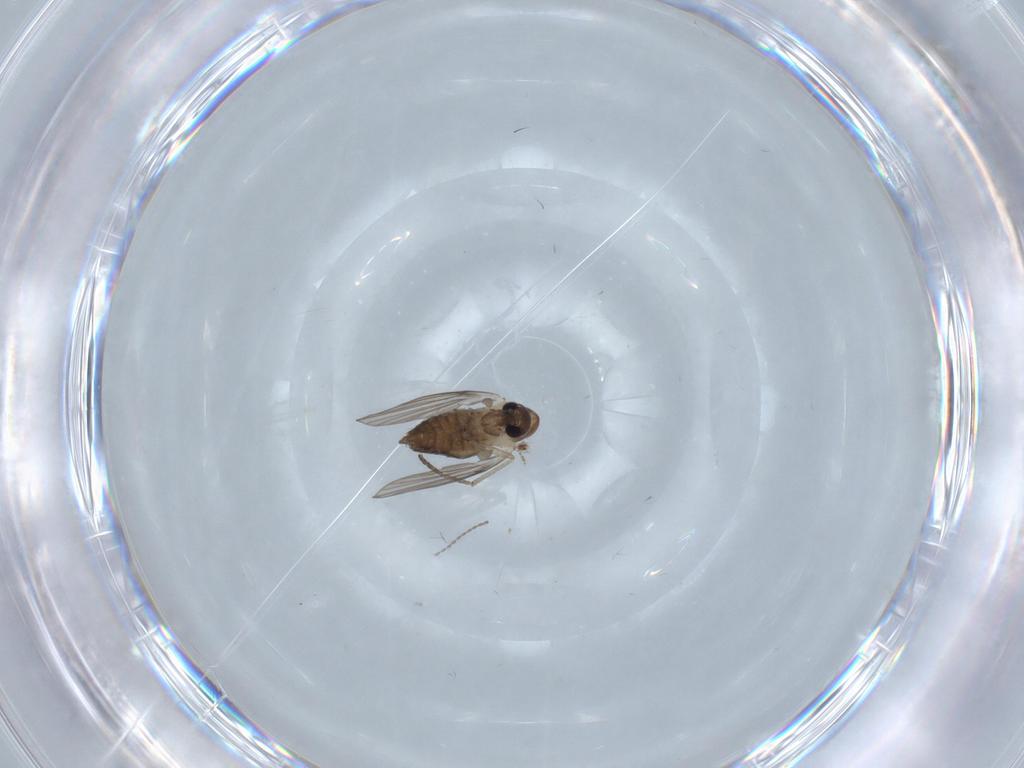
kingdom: Animalia
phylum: Arthropoda
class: Insecta
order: Diptera
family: Psychodidae
